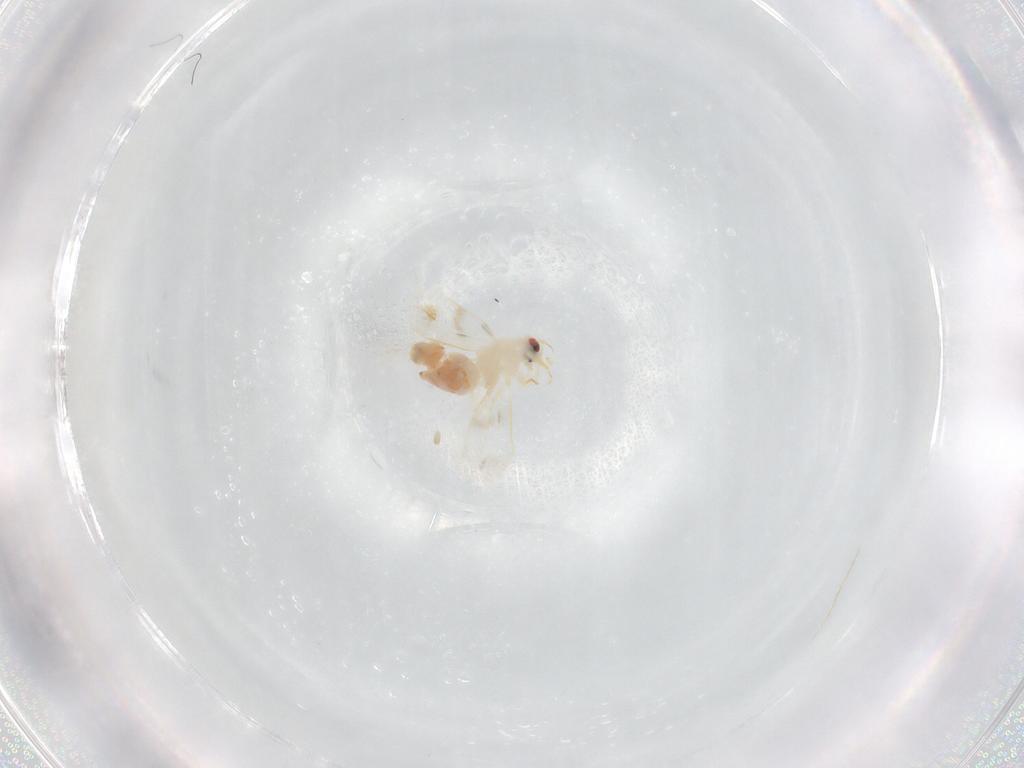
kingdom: Animalia
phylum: Arthropoda
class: Insecta
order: Hemiptera
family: Aleyrodidae
